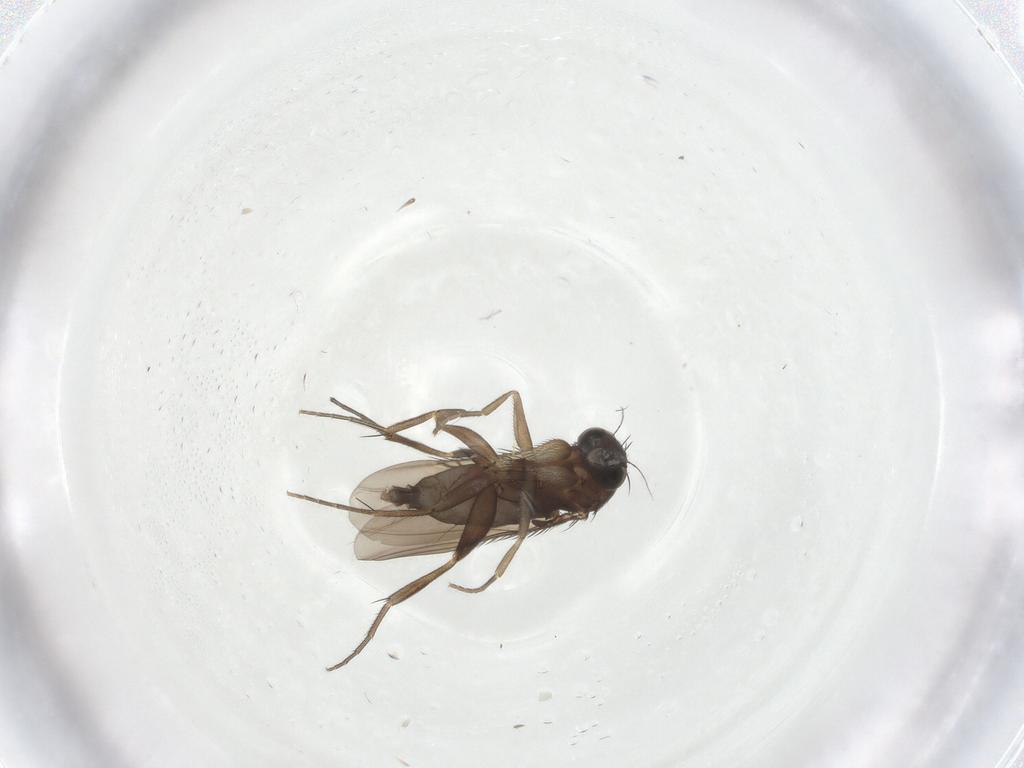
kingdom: Animalia
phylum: Arthropoda
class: Insecta
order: Diptera
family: Phoridae
